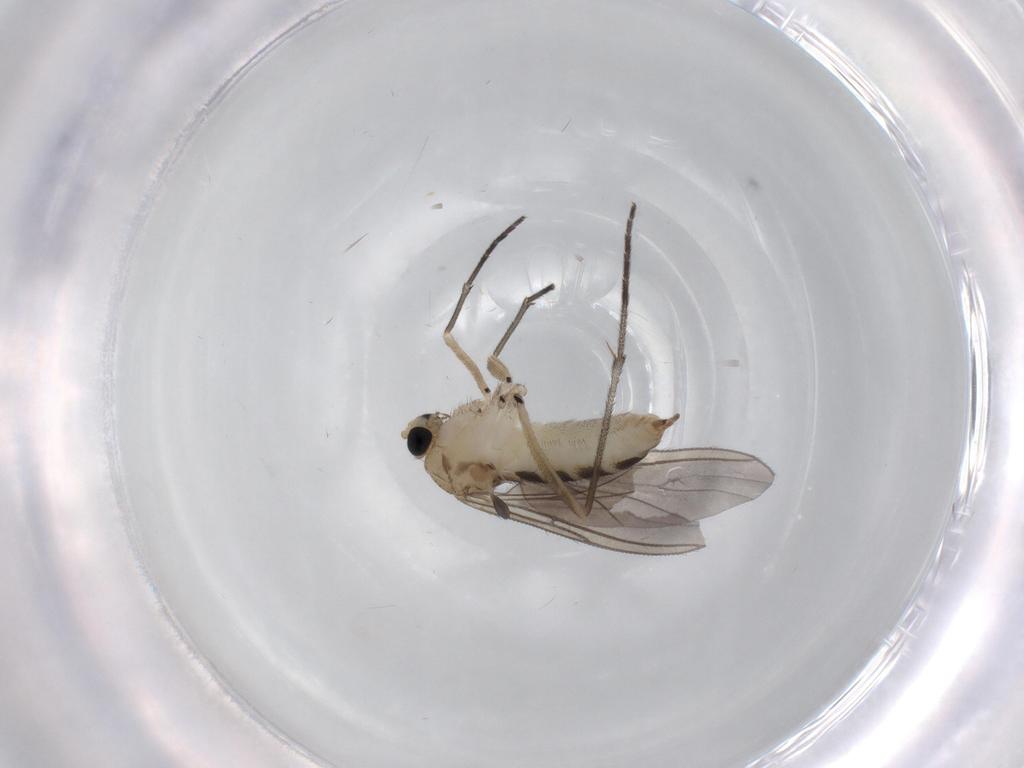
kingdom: Animalia
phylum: Arthropoda
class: Insecta
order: Diptera
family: Sciaridae
